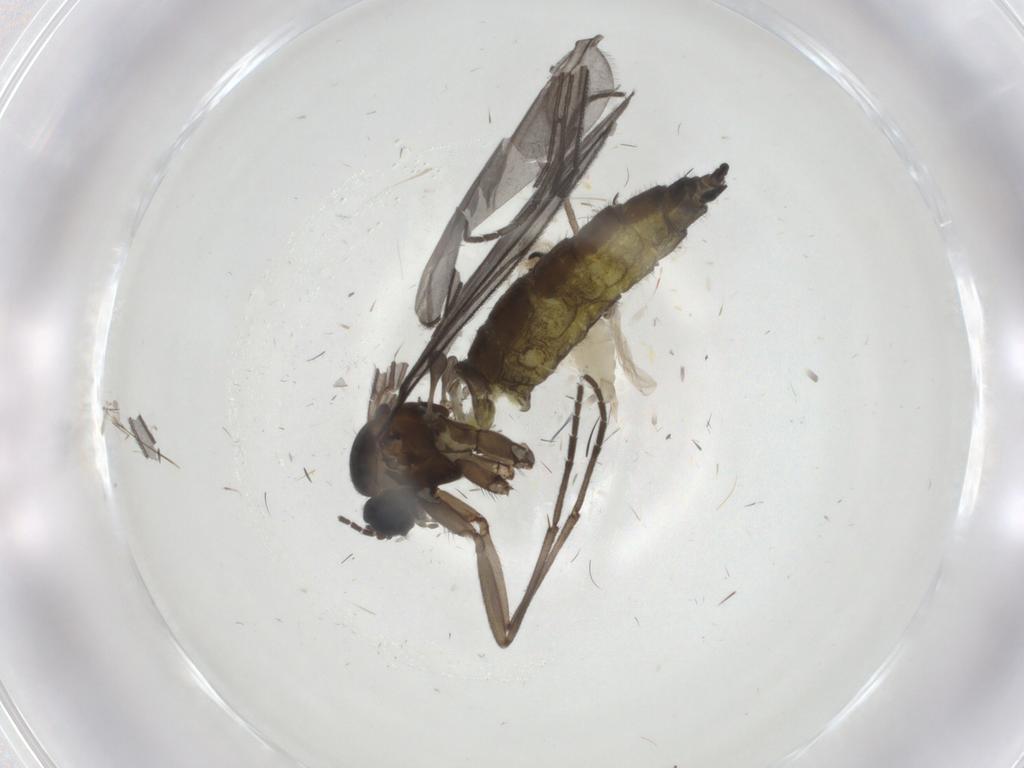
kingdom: Animalia
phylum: Arthropoda
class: Insecta
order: Diptera
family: Sciaridae
